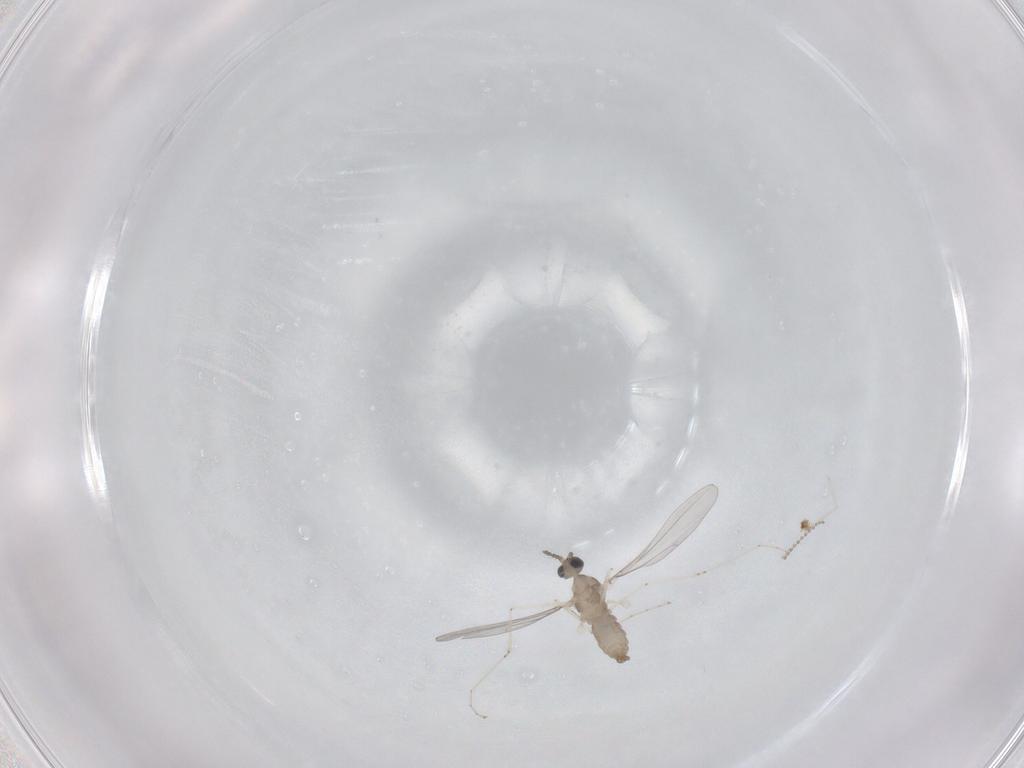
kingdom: Animalia
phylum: Arthropoda
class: Insecta
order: Diptera
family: Cecidomyiidae
